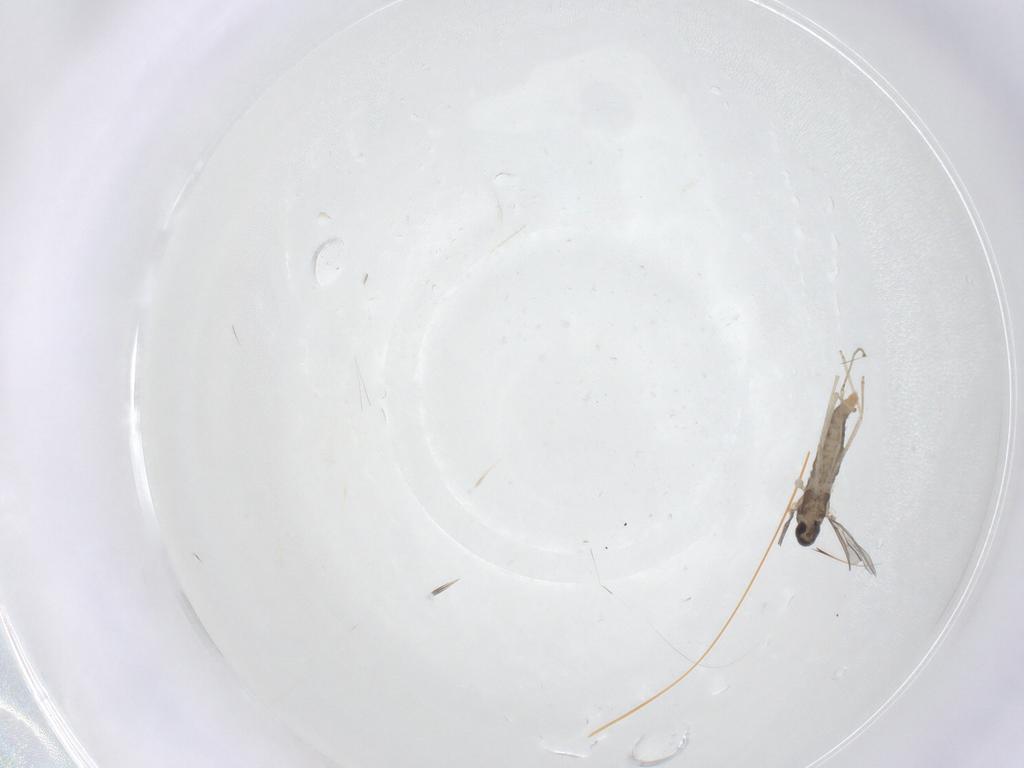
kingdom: Animalia
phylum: Arthropoda
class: Insecta
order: Diptera
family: Cecidomyiidae
